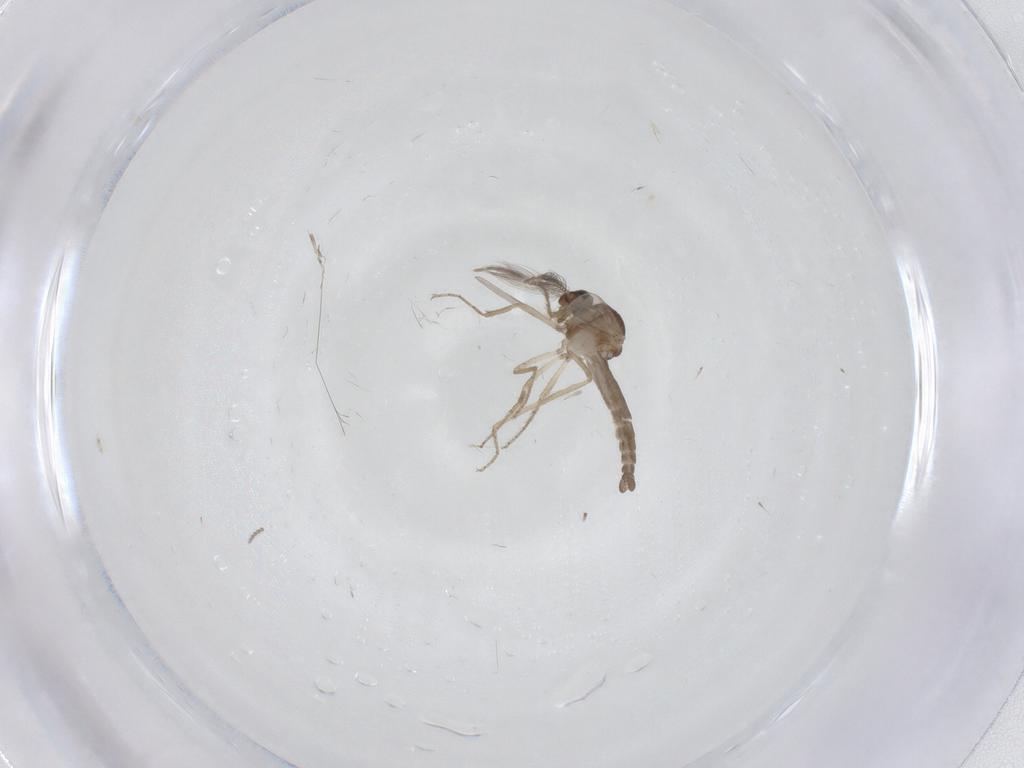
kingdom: Animalia
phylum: Arthropoda
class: Insecta
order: Diptera
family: Ceratopogonidae
